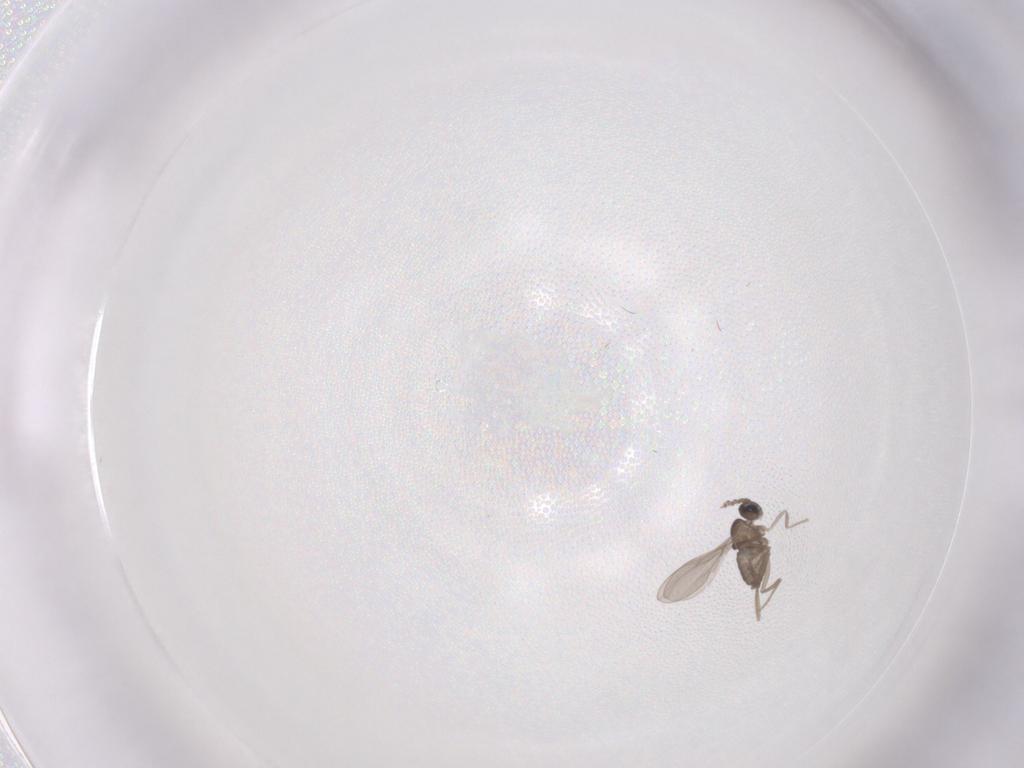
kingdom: Animalia
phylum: Arthropoda
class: Insecta
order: Diptera
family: Cecidomyiidae
